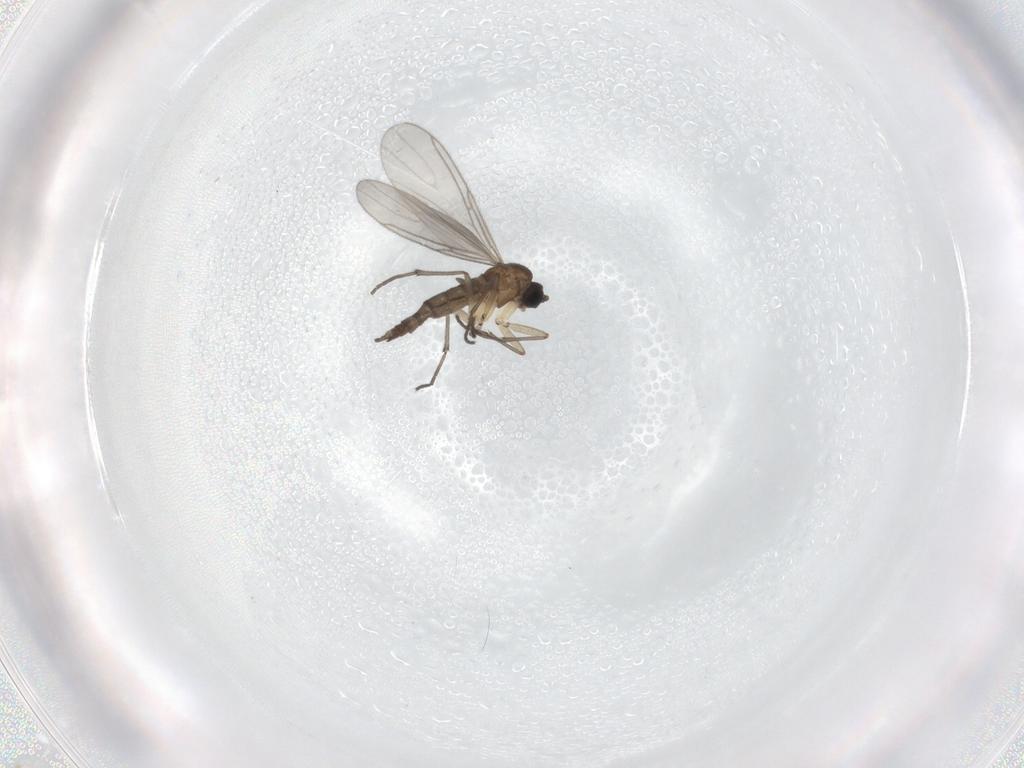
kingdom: Animalia
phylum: Arthropoda
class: Insecta
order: Diptera
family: Sciaridae
